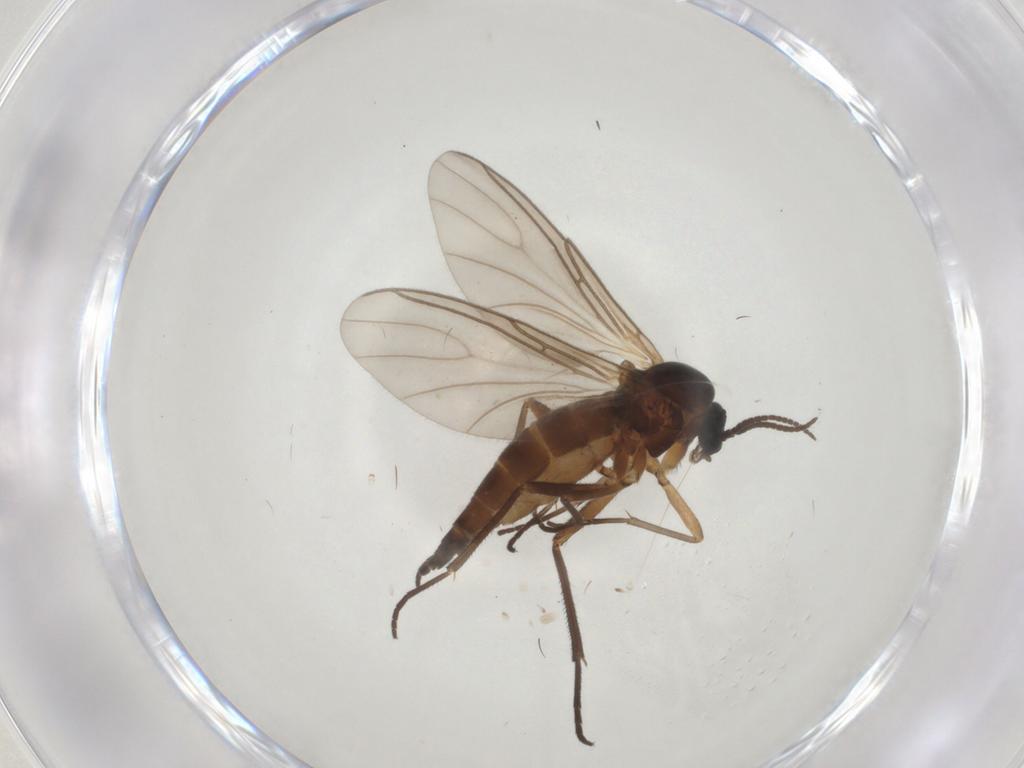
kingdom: Animalia
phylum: Arthropoda
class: Insecta
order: Diptera
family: Sciaridae
